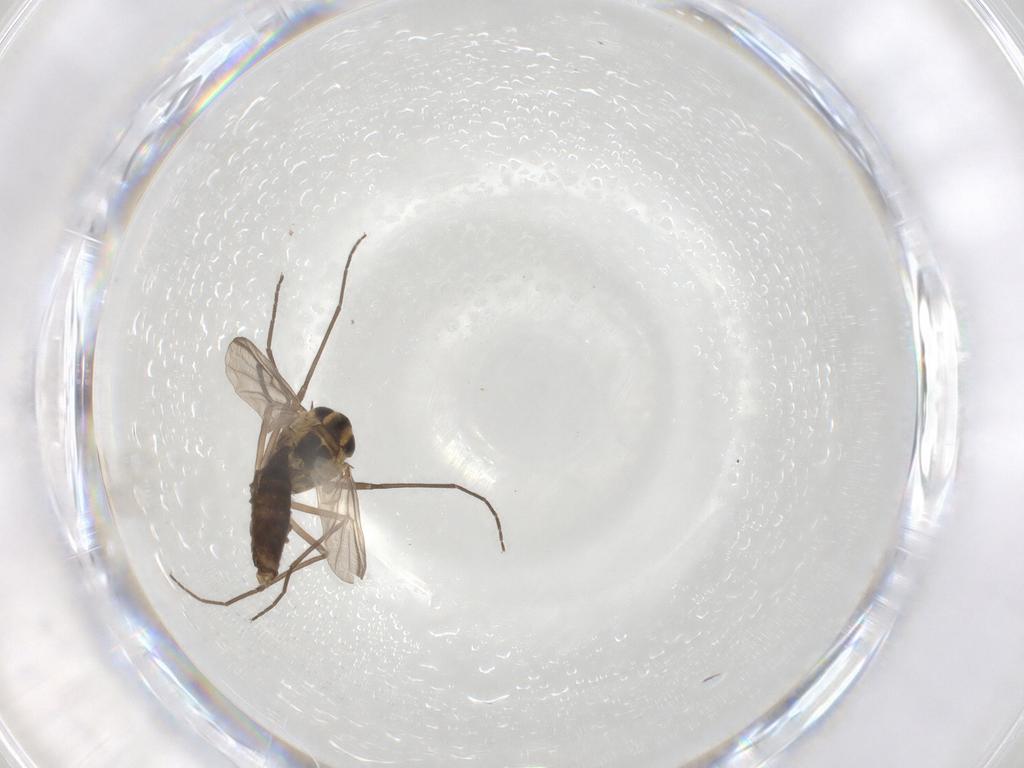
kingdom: Animalia
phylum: Arthropoda
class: Insecta
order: Diptera
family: Chironomidae
